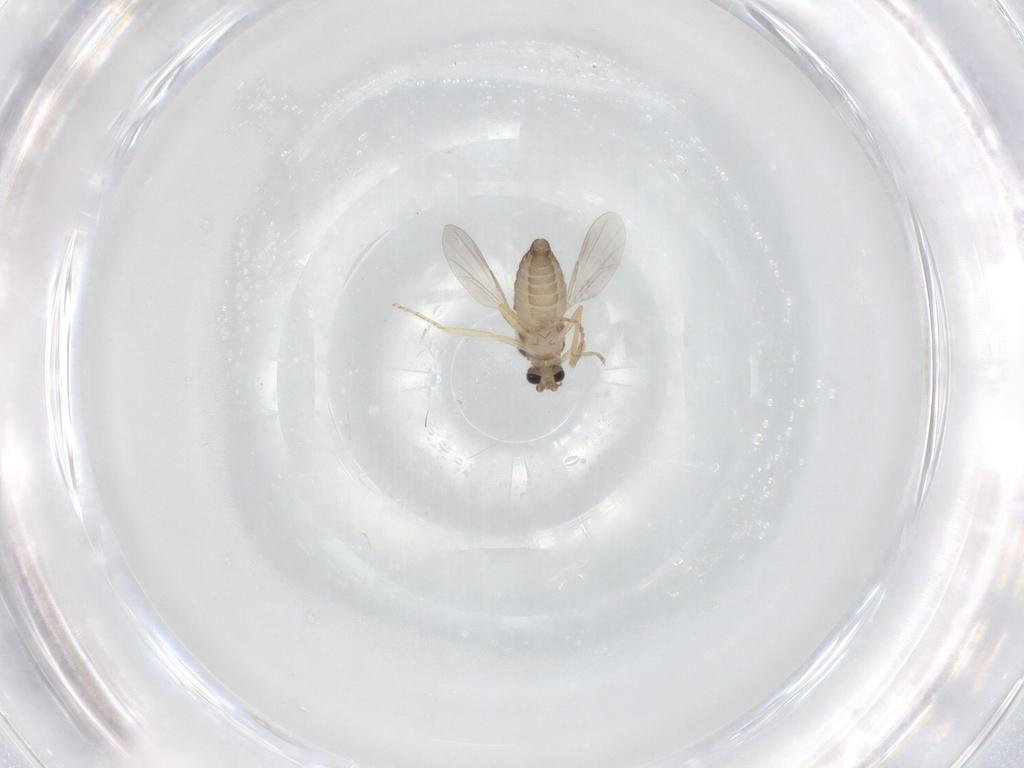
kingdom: Animalia
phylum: Arthropoda
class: Insecta
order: Diptera
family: Ceratopogonidae
